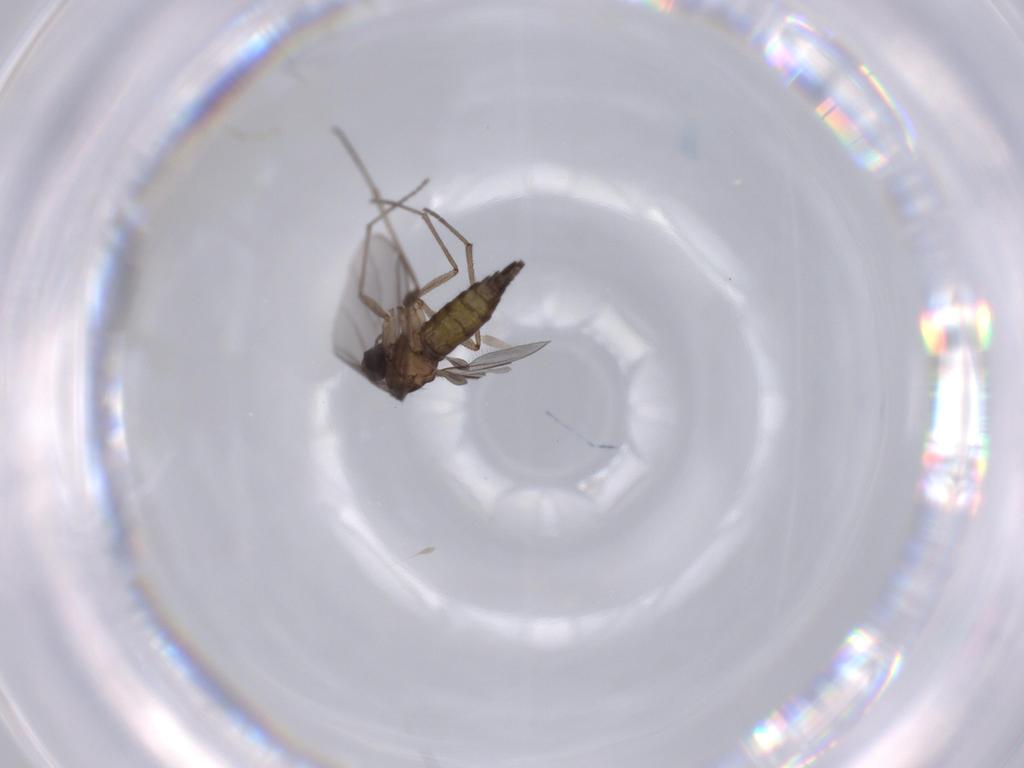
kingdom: Animalia
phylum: Arthropoda
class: Insecta
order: Diptera
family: Sciaridae
